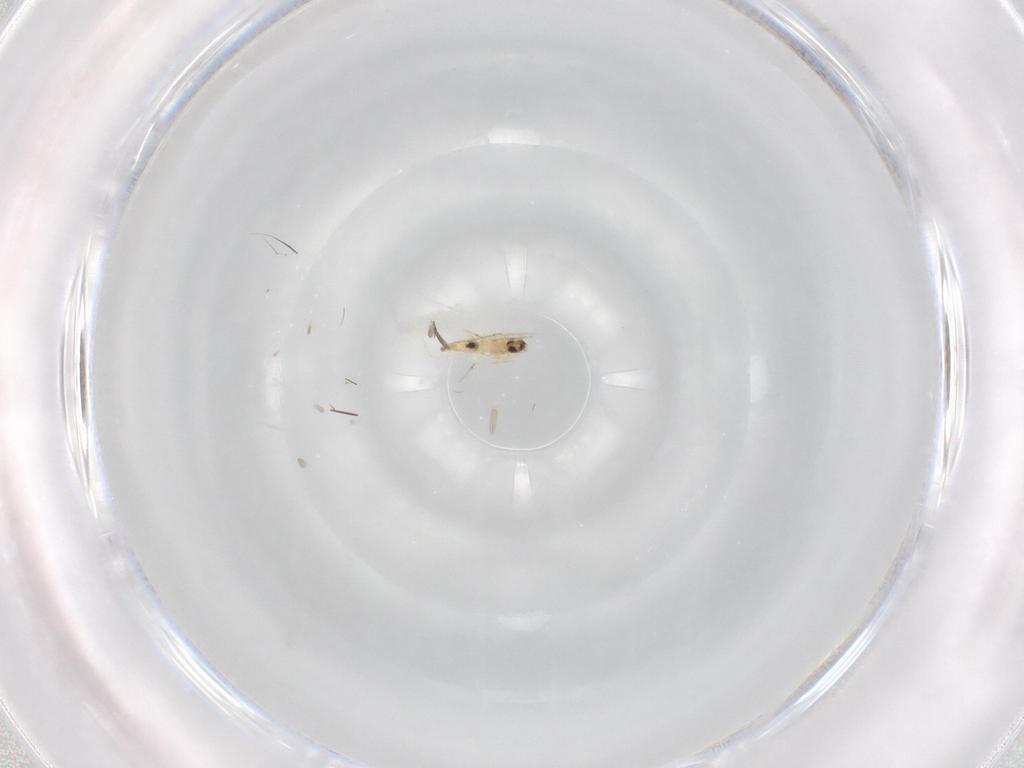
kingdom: Animalia
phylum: Arthropoda
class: Insecta
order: Diptera
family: Cecidomyiidae
